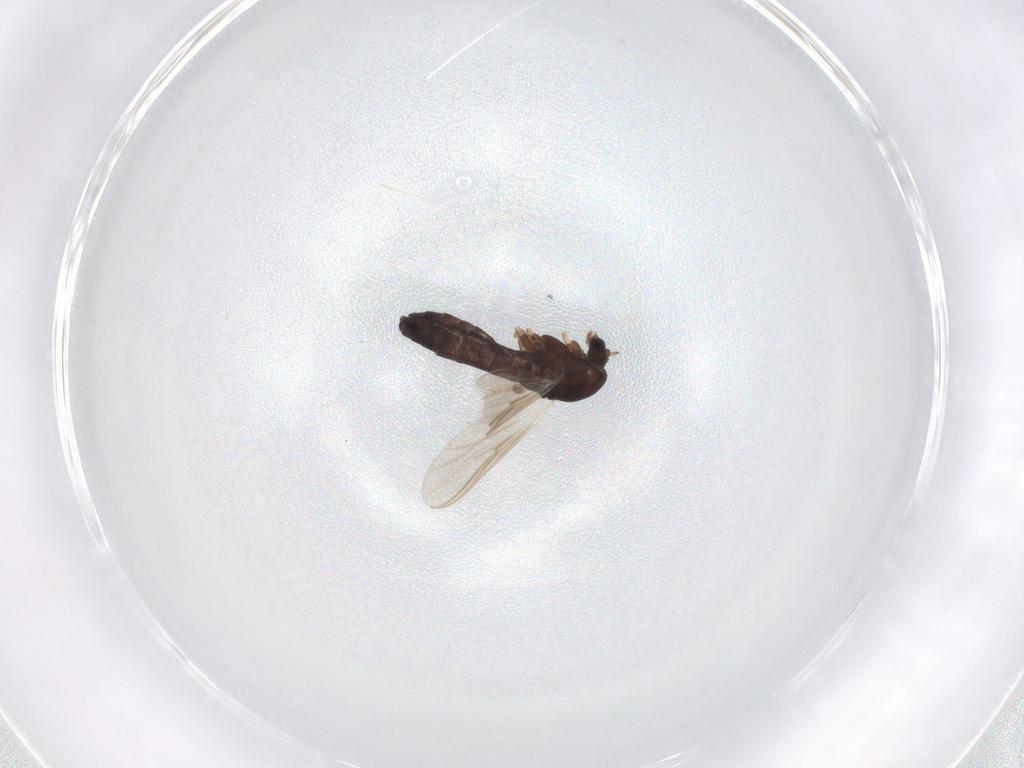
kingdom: Animalia
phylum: Arthropoda
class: Insecta
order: Diptera
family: Chironomidae
